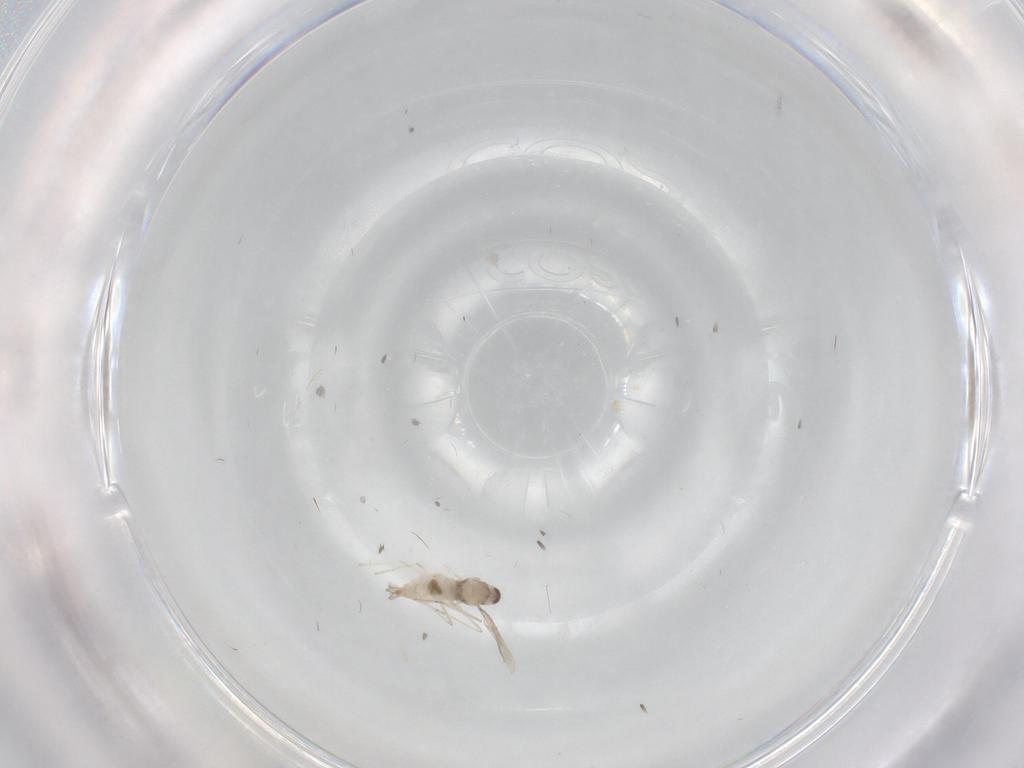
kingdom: Animalia
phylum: Arthropoda
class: Insecta
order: Diptera
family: Cecidomyiidae
